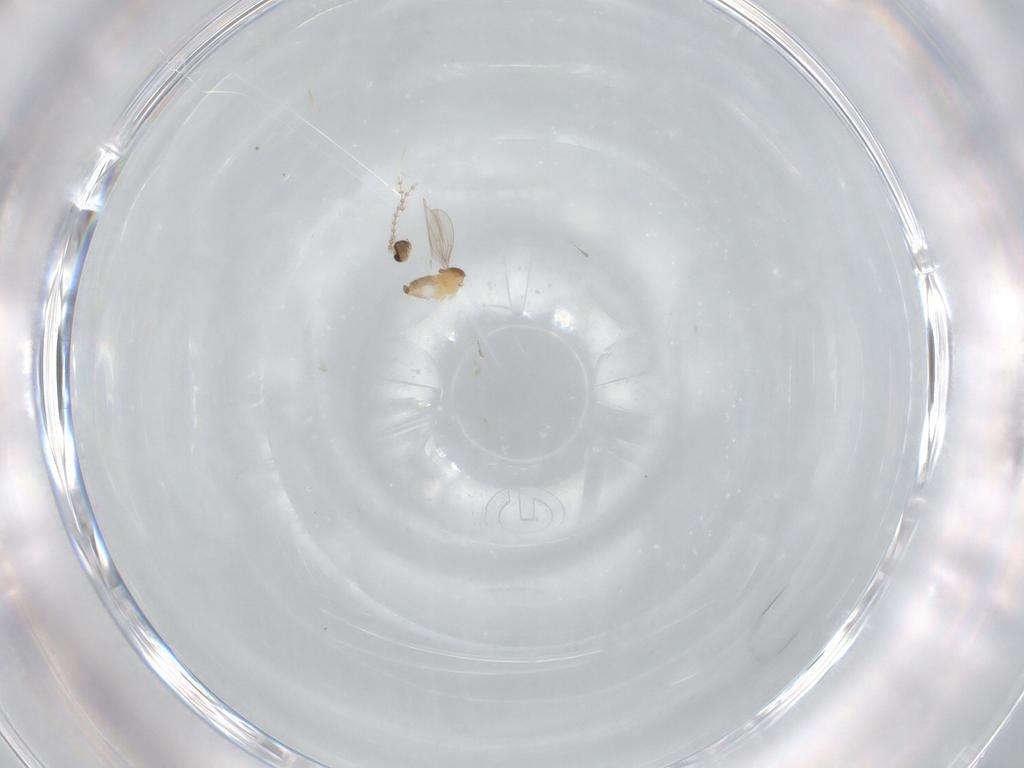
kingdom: Animalia
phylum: Arthropoda
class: Insecta
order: Diptera
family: Cecidomyiidae
